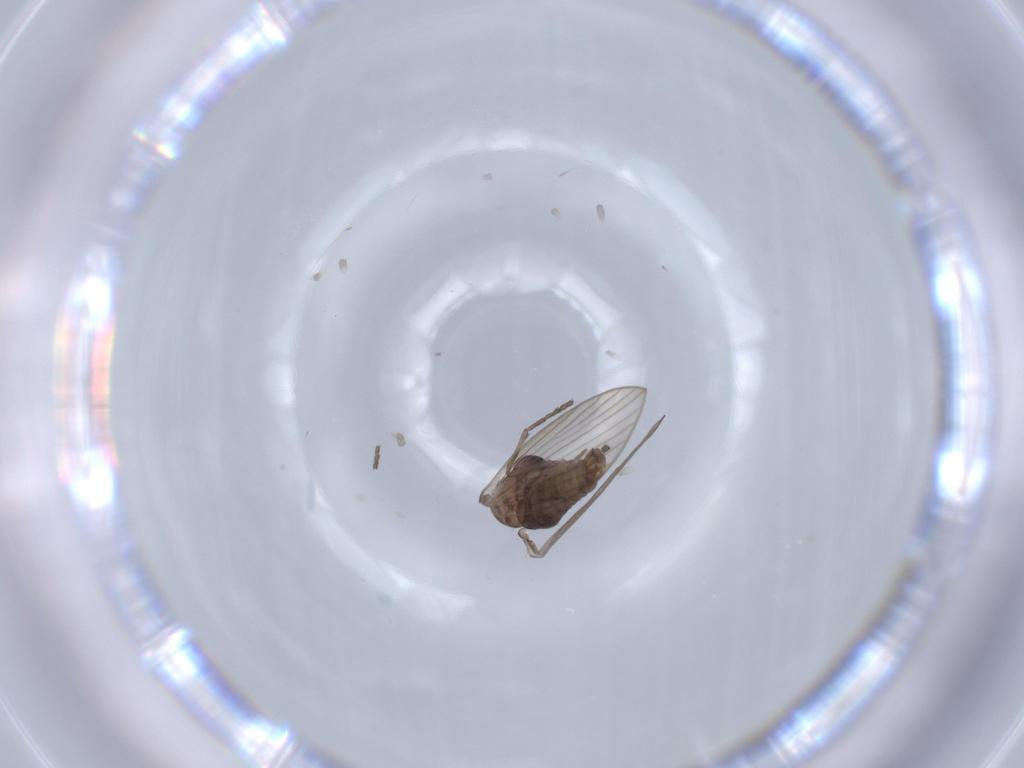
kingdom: Animalia
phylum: Arthropoda
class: Insecta
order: Diptera
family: Psychodidae
